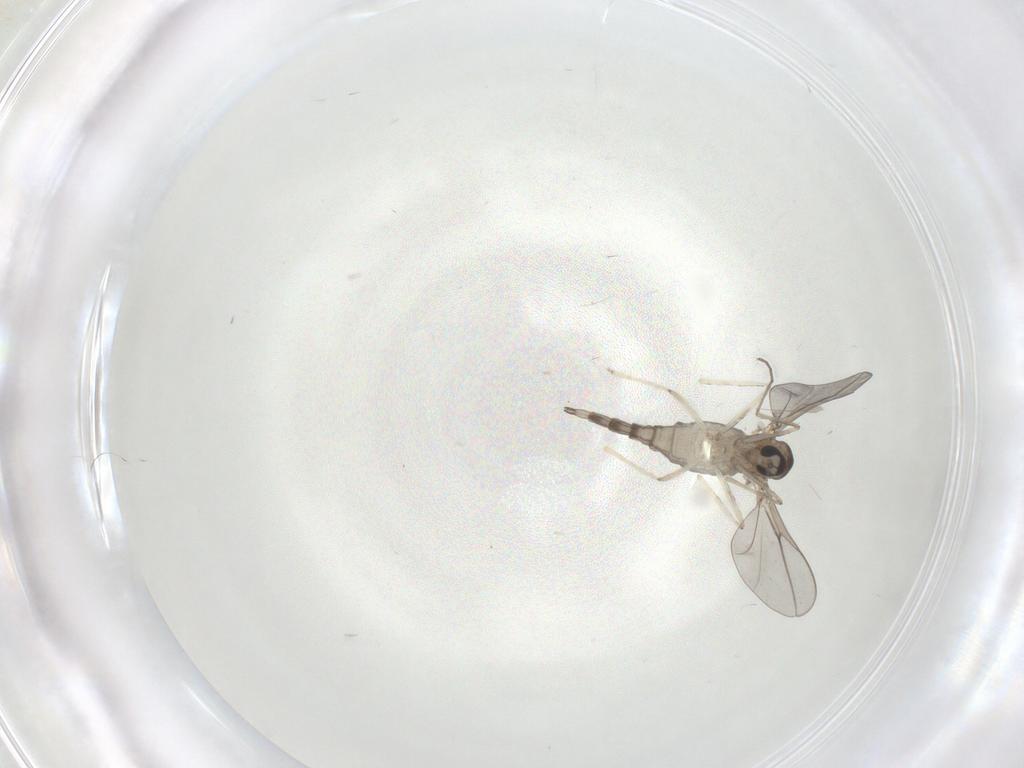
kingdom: Animalia
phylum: Arthropoda
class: Insecta
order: Diptera
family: Cecidomyiidae
